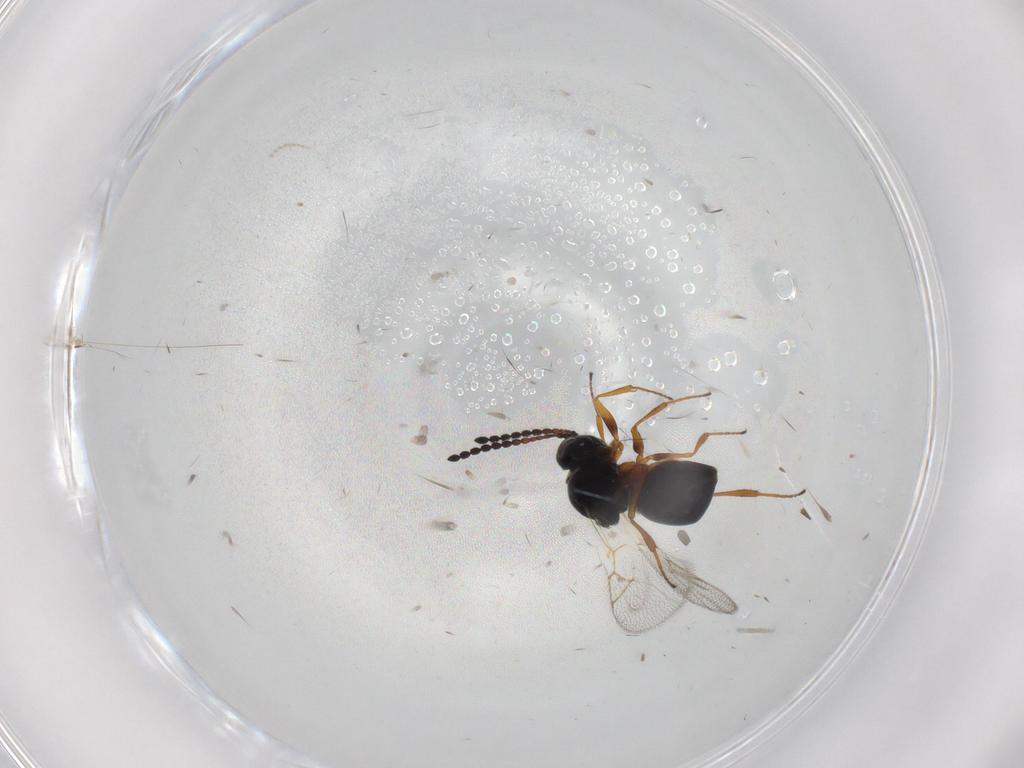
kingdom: Animalia
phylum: Arthropoda
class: Insecta
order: Hymenoptera
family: Figitidae
